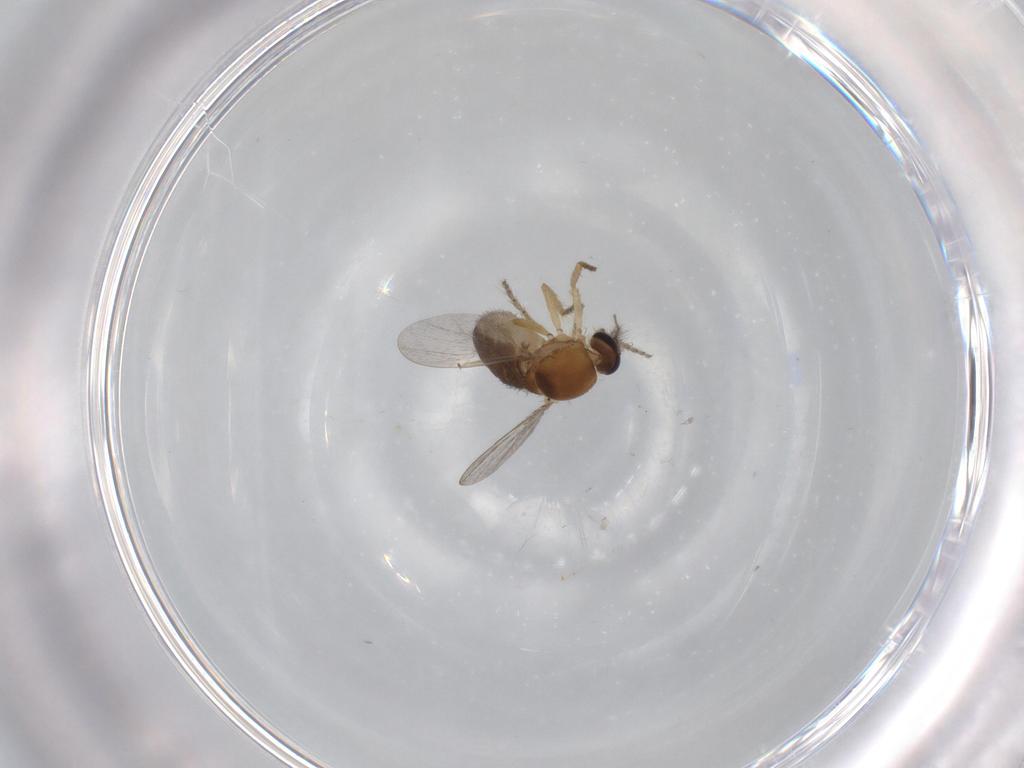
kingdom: Animalia
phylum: Arthropoda
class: Insecta
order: Diptera
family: Ceratopogonidae
